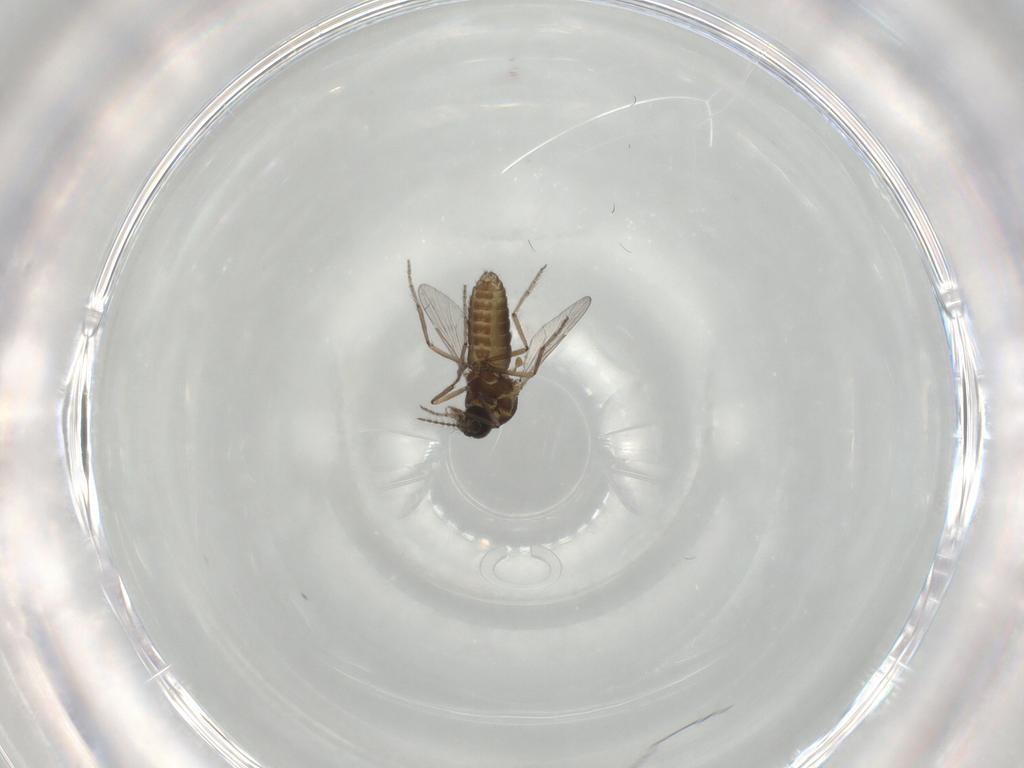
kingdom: Animalia
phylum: Arthropoda
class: Insecta
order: Diptera
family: Ceratopogonidae
